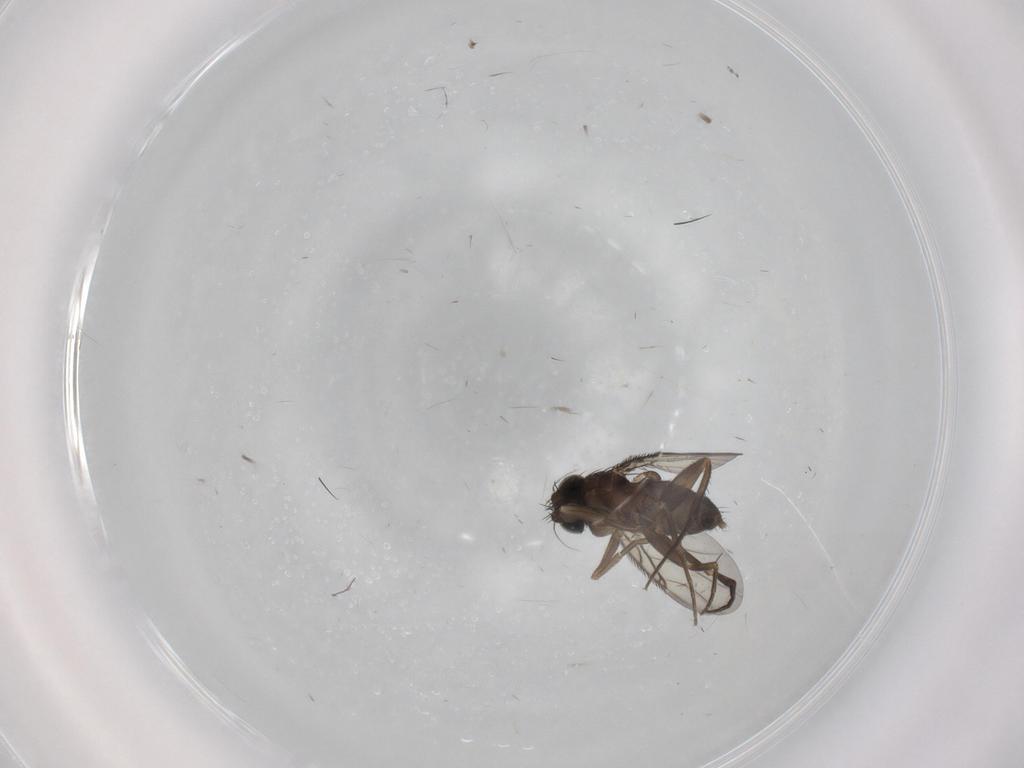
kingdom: Animalia
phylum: Arthropoda
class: Insecta
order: Diptera
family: Phoridae
